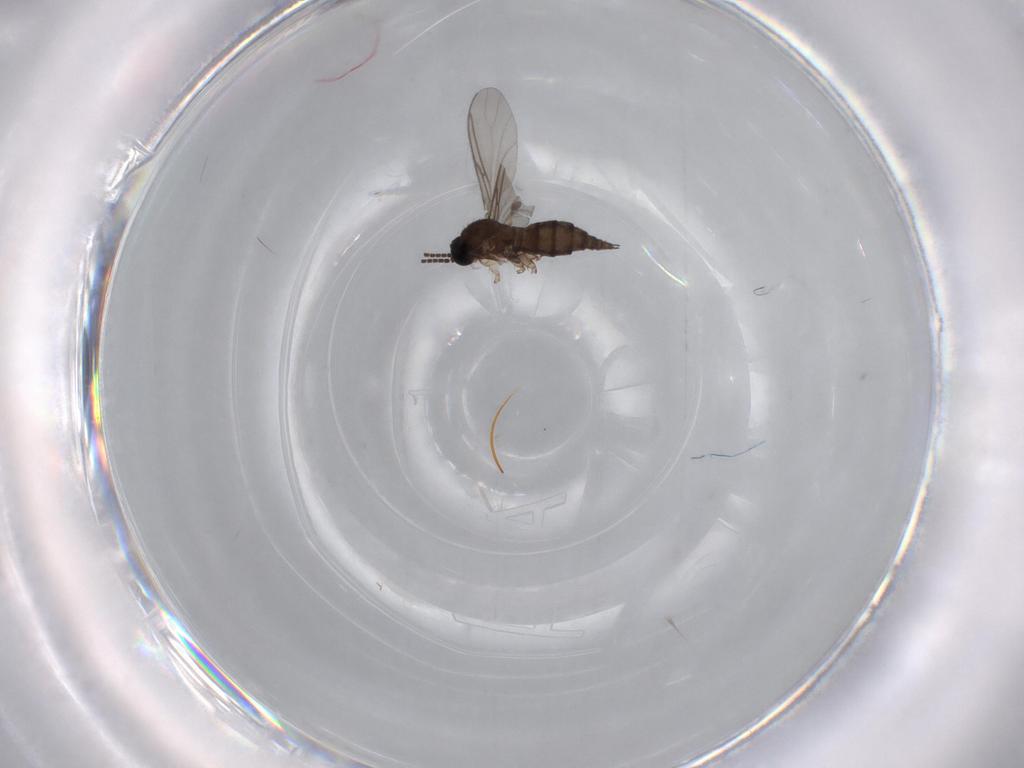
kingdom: Animalia
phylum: Arthropoda
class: Insecta
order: Diptera
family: Sciaridae
